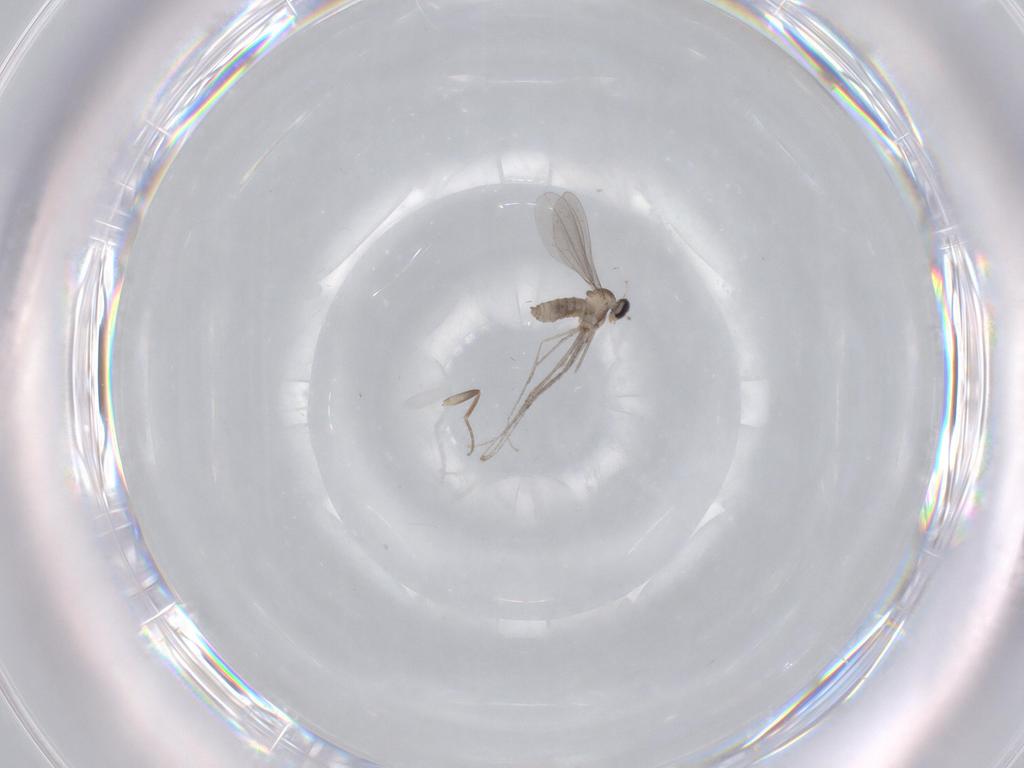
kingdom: Animalia
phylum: Arthropoda
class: Insecta
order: Diptera
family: Cecidomyiidae
